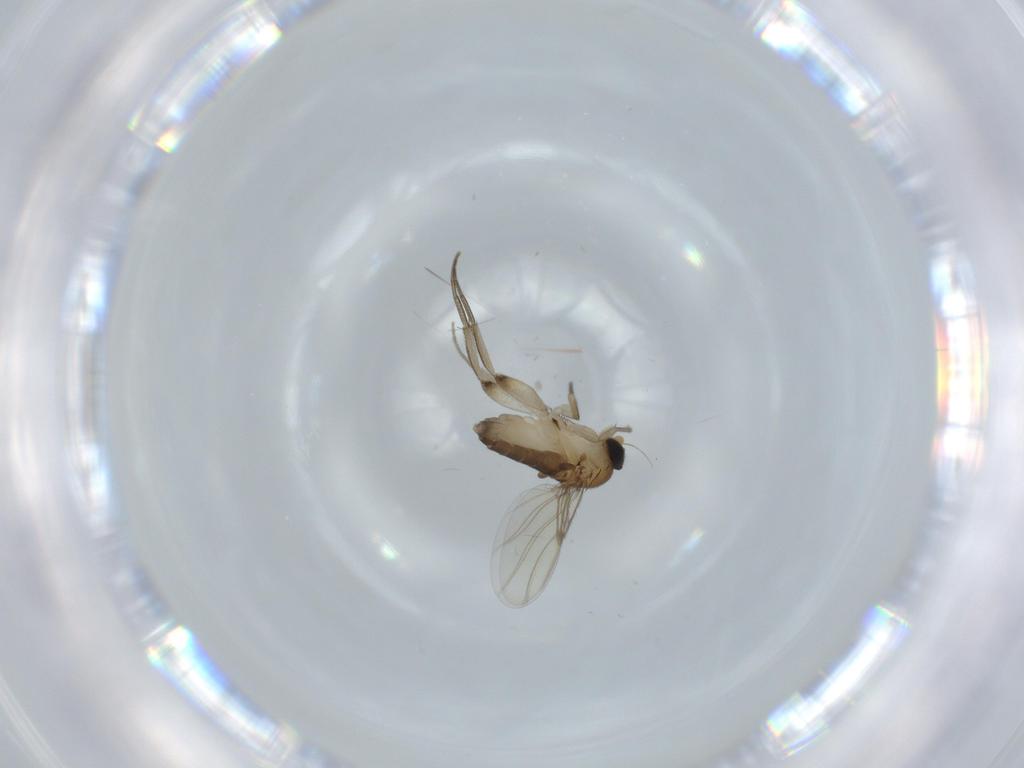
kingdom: Animalia
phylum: Arthropoda
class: Insecta
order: Diptera
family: Phoridae
